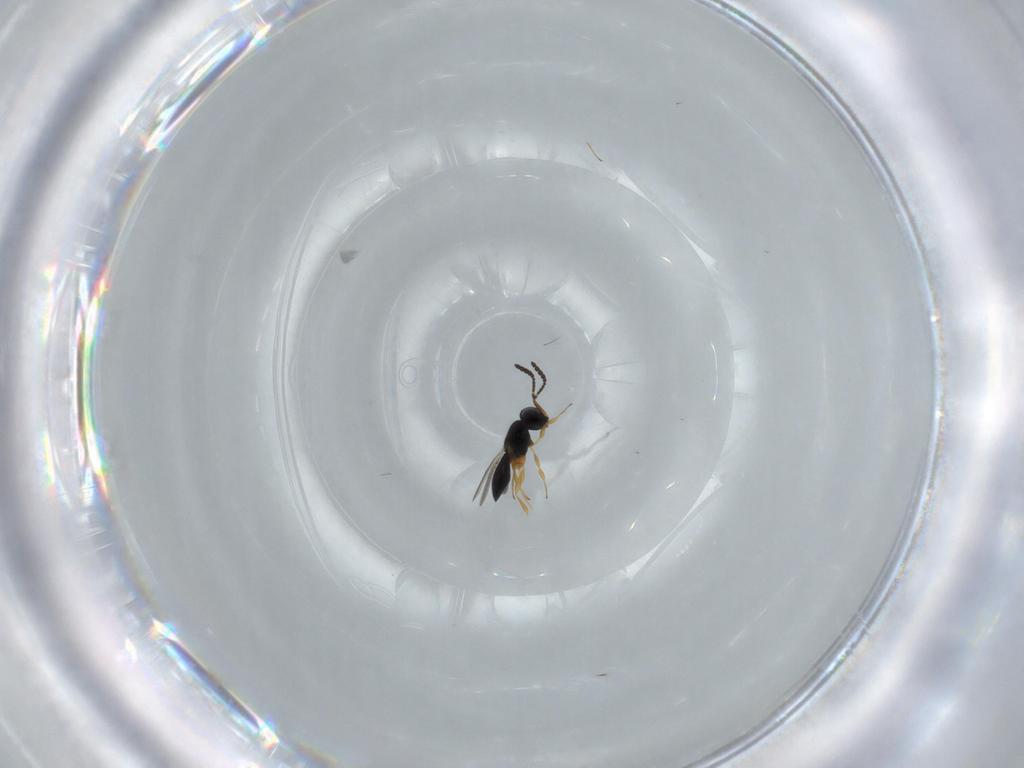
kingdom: Animalia
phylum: Arthropoda
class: Insecta
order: Hymenoptera
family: Scelionidae
